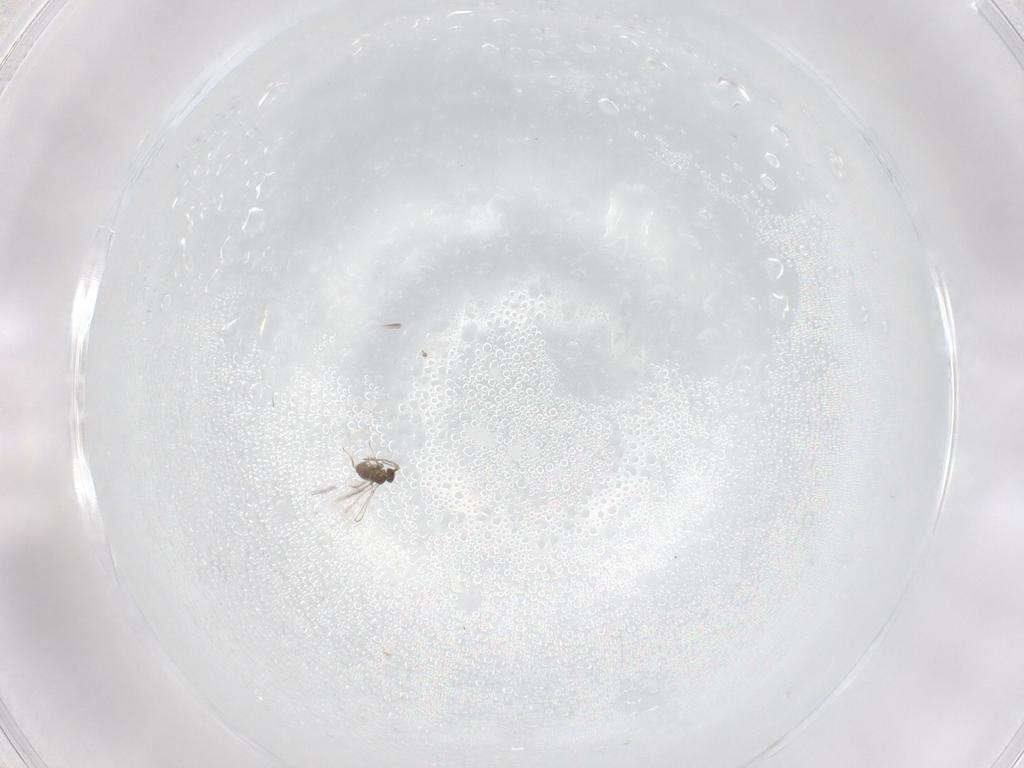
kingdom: Animalia
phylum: Arthropoda
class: Insecta
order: Hymenoptera
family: Mymaridae
